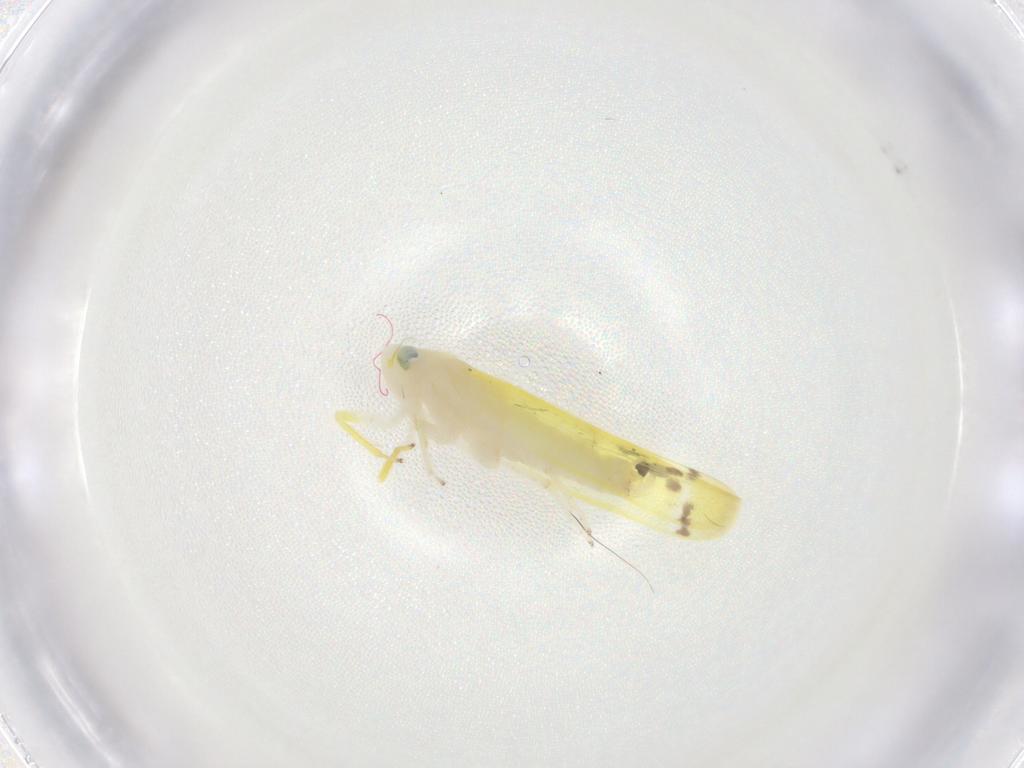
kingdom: Animalia
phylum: Arthropoda
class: Insecta
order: Hemiptera
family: Cicadellidae
